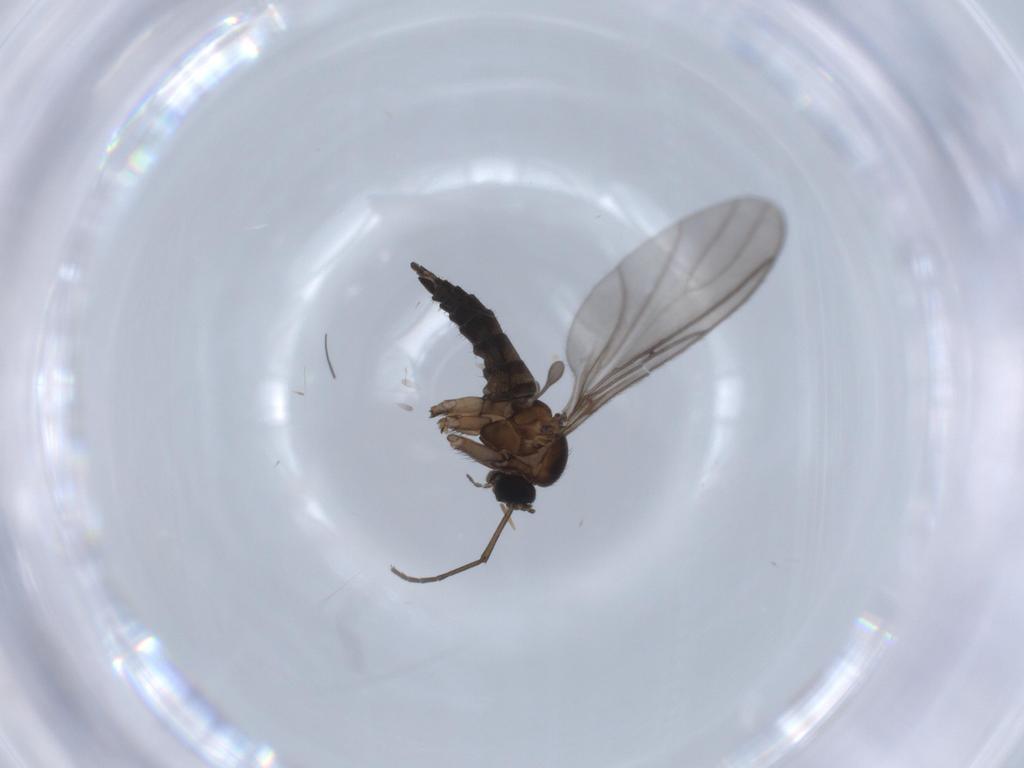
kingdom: Animalia
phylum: Arthropoda
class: Insecta
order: Diptera
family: Sciaridae
